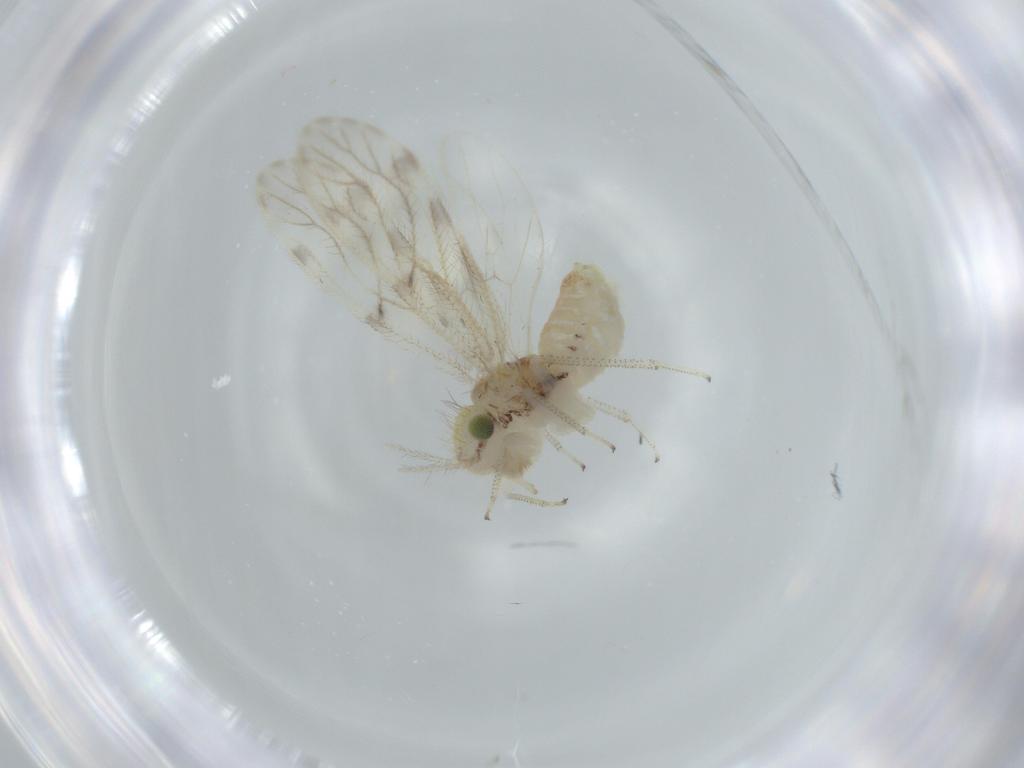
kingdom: Animalia
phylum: Arthropoda
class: Insecta
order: Psocodea
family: Pseudocaeciliidae
